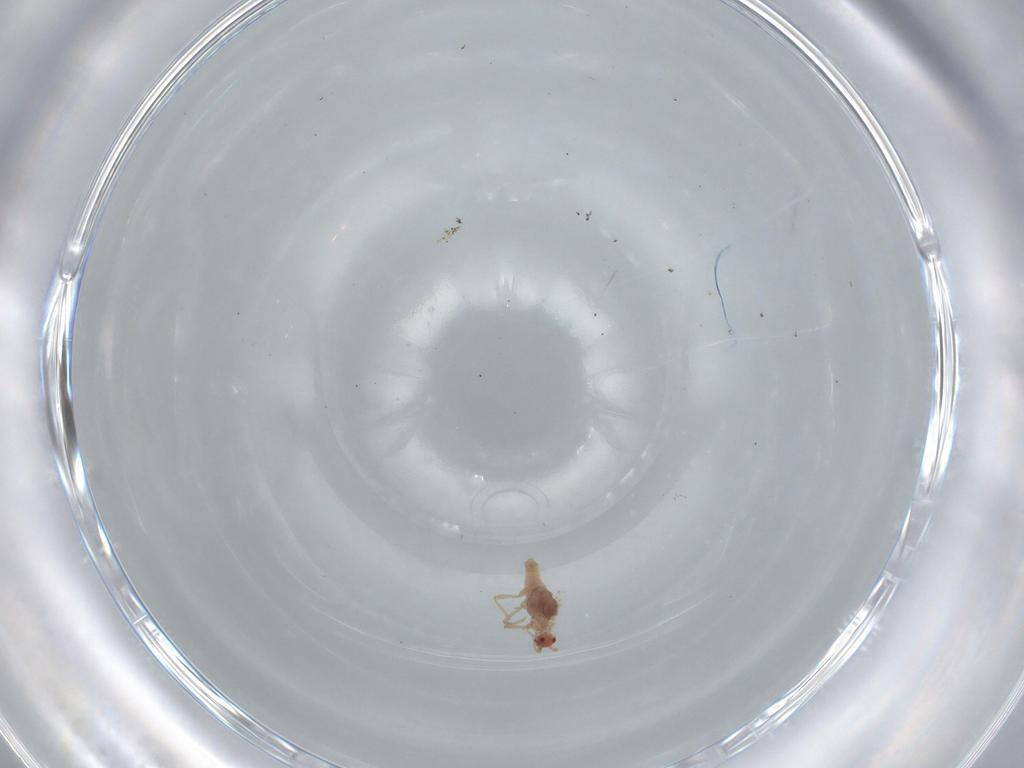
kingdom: Animalia
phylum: Arthropoda
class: Insecta
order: Hemiptera
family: Pseudococcidae
